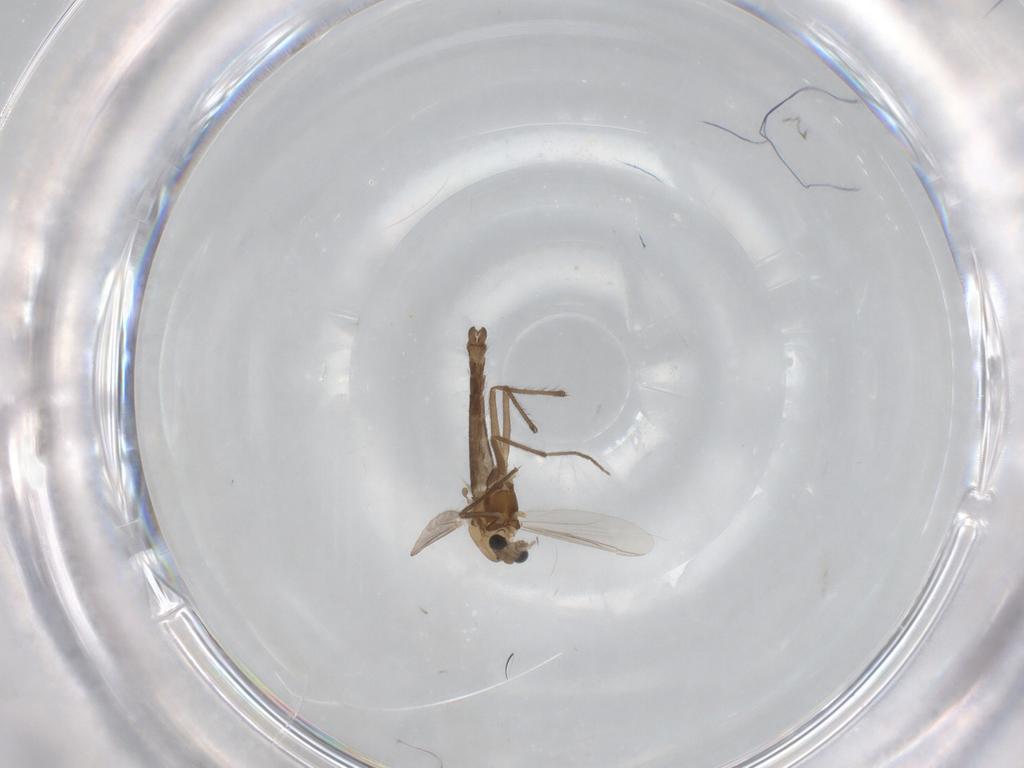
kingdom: Animalia
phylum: Arthropoda
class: Insecta
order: Diptera
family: Chironomidae
